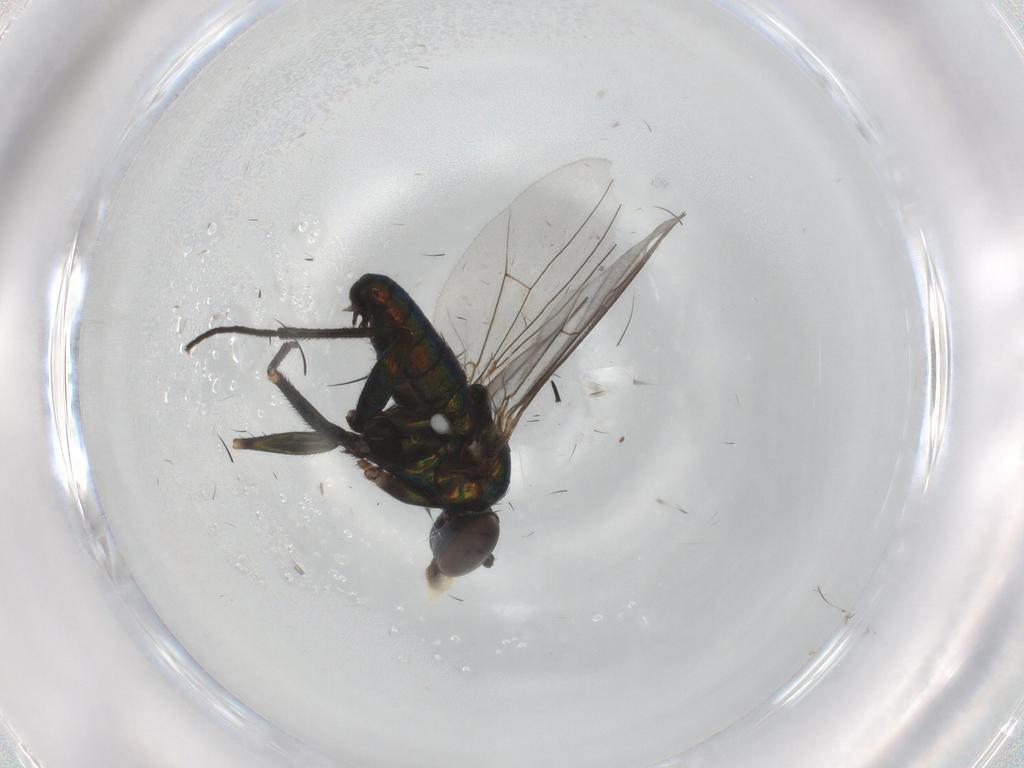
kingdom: Animalia
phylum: Arthropoda
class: Insecta
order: Diptera
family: Dolichopodidae
